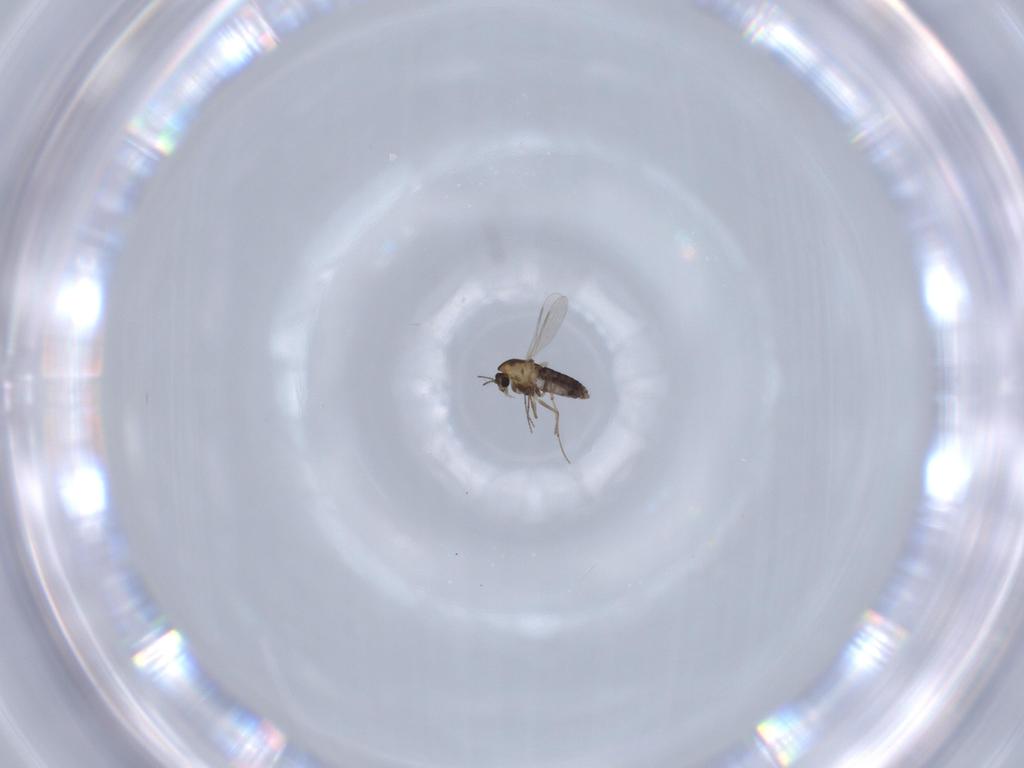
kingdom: Animalia
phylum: Arthropoda
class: Insecta
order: Diptera
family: Chironomidae
